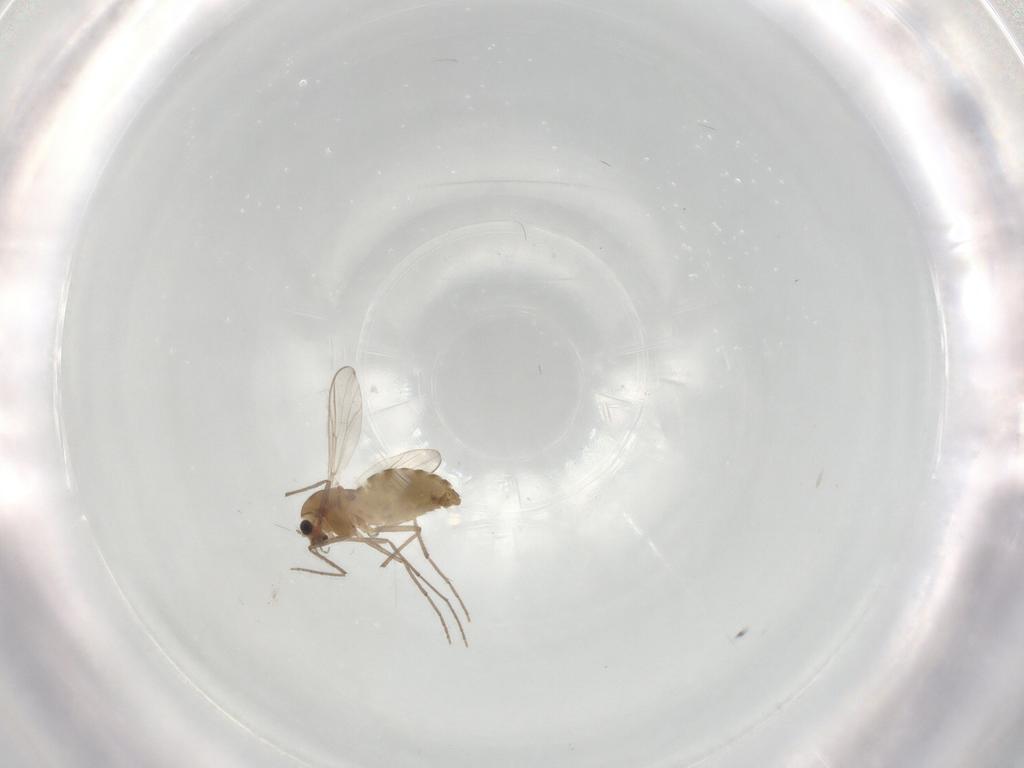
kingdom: Animalia
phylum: Arthropoda
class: Insecta
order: Diptera
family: Chironomidae
